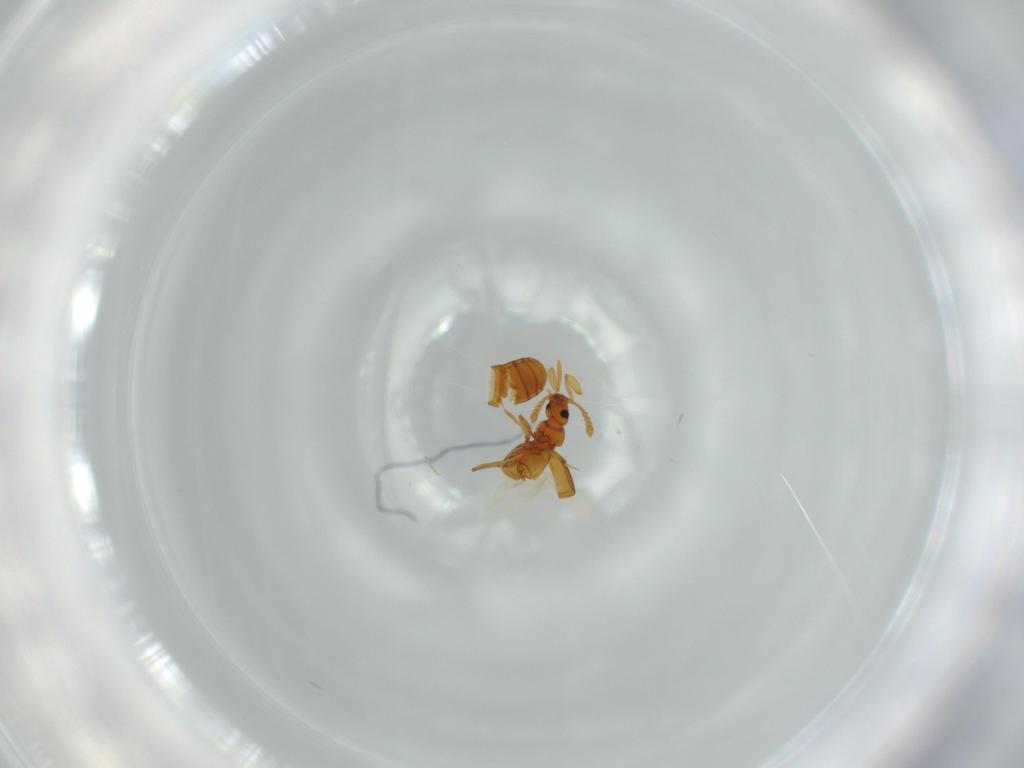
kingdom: Animalia
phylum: Arthropoda
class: Insecta
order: Coleoptera
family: Staphylinidae
